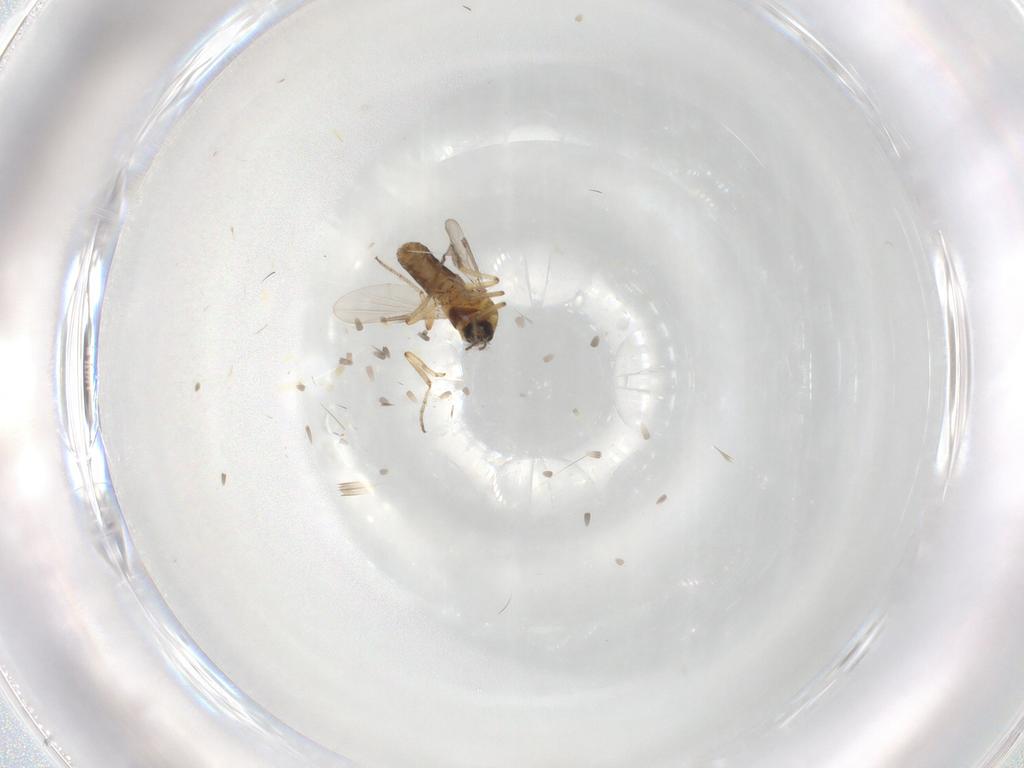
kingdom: Animalia
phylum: Arthropoda
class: Insecta
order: Diptera
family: Ceratopogonidae
